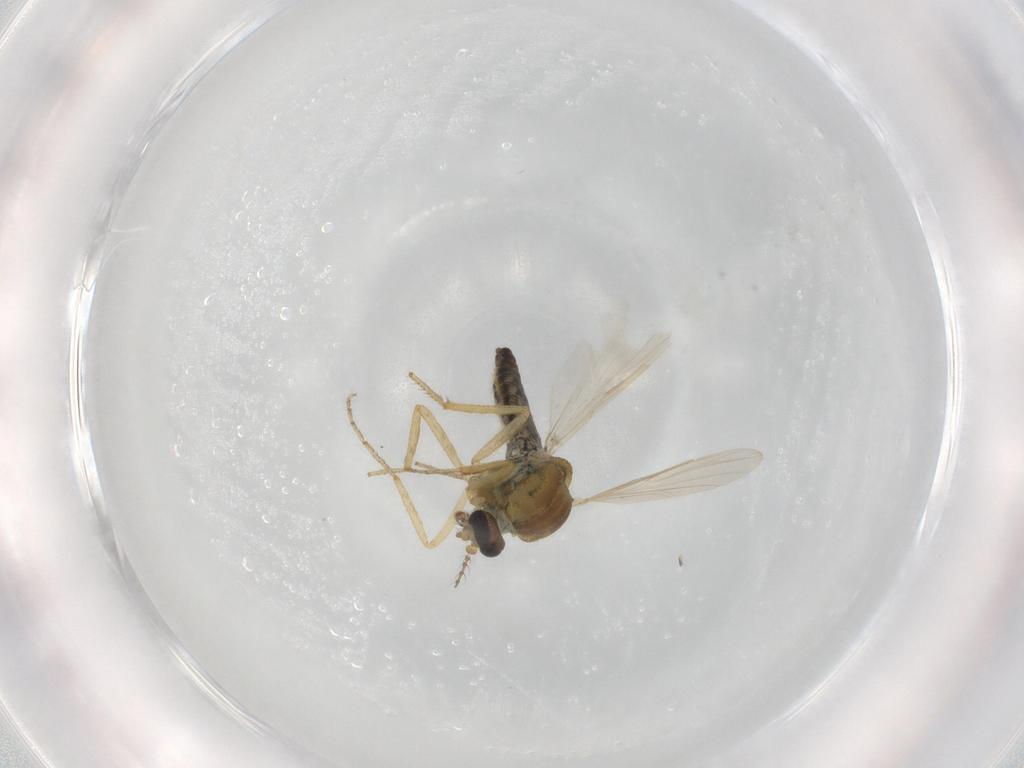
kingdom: Animalia
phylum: Arthropoda
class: Insecta
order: Diptera
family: Ceratopogonidae
